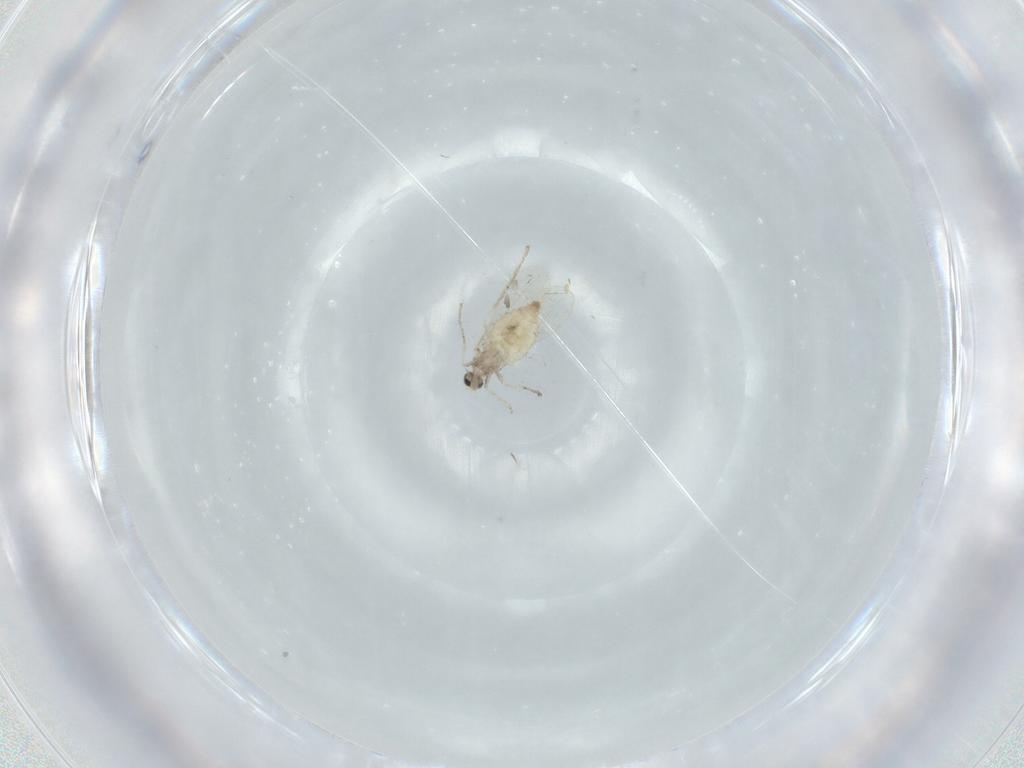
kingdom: Animalia
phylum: Arthropoda
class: Insecta
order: Diptera
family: Cecidomyiidae
